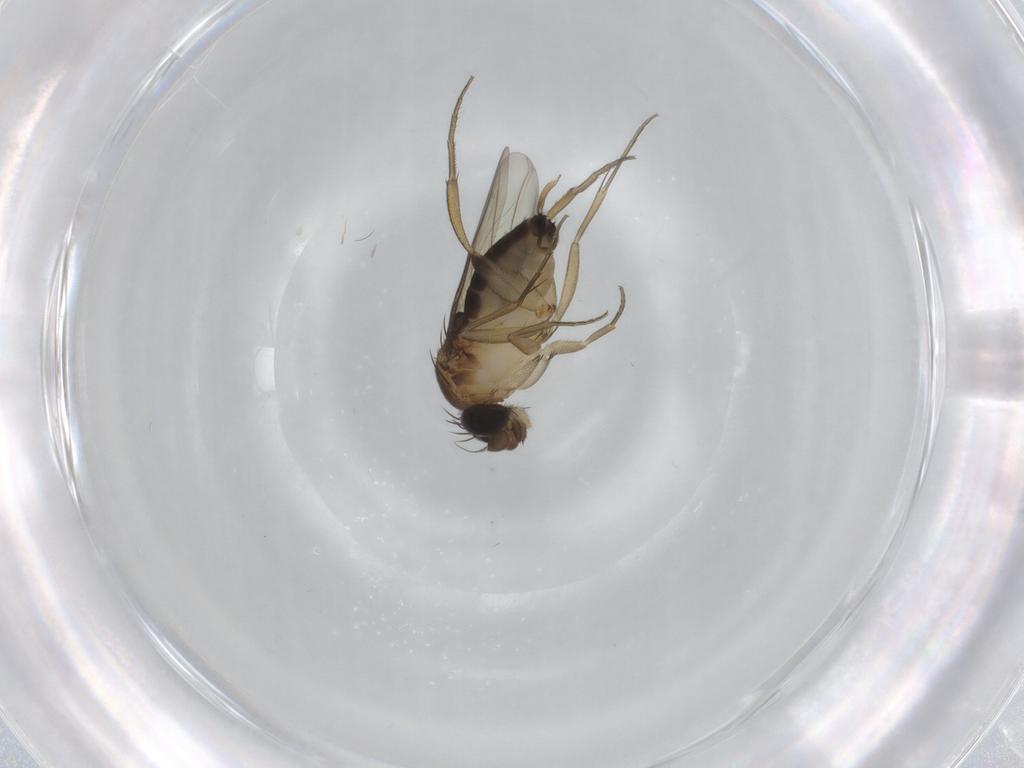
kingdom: Animalia
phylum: Arthropoda
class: Insecta
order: Diptera
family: Phoridae
